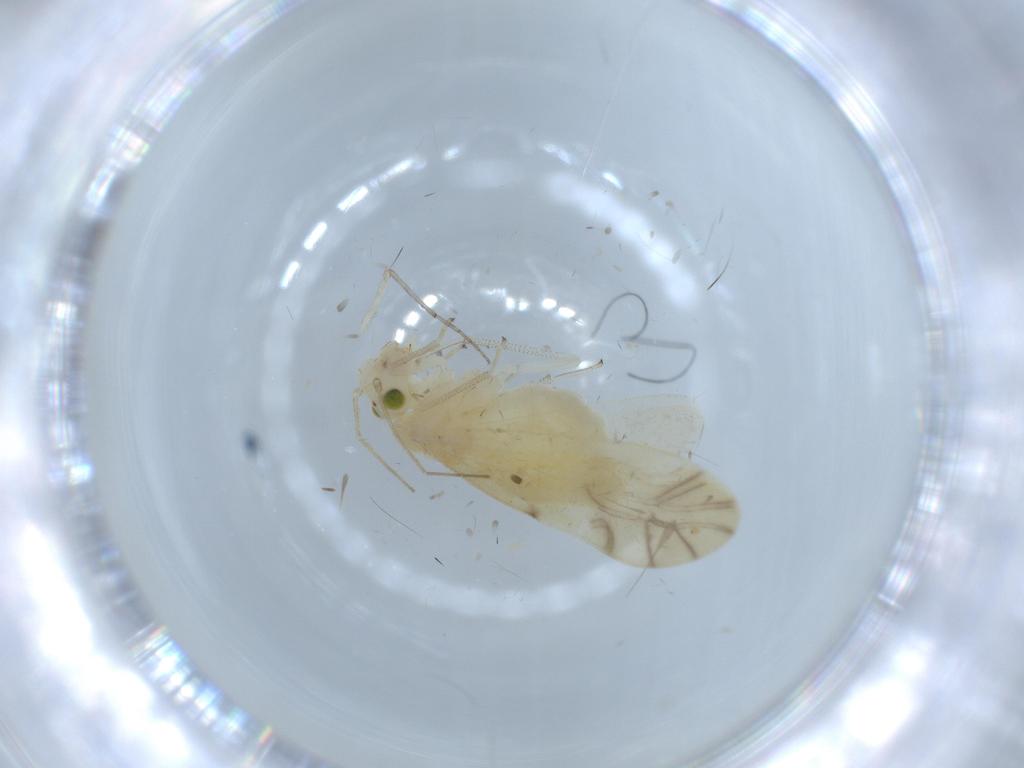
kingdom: Animalia
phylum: Arthropoda
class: Insecta
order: Psocodea
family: Caeciliusidae
